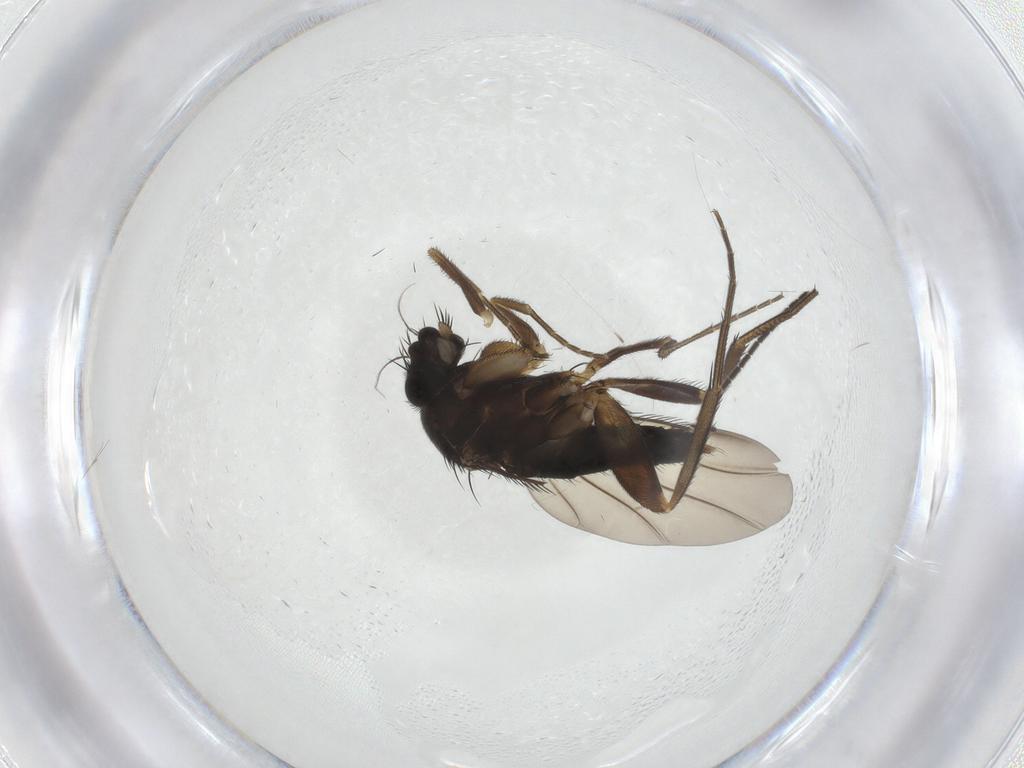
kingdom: Animalia
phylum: Arthropoda
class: Insecta
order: Diptera
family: Phoridae
